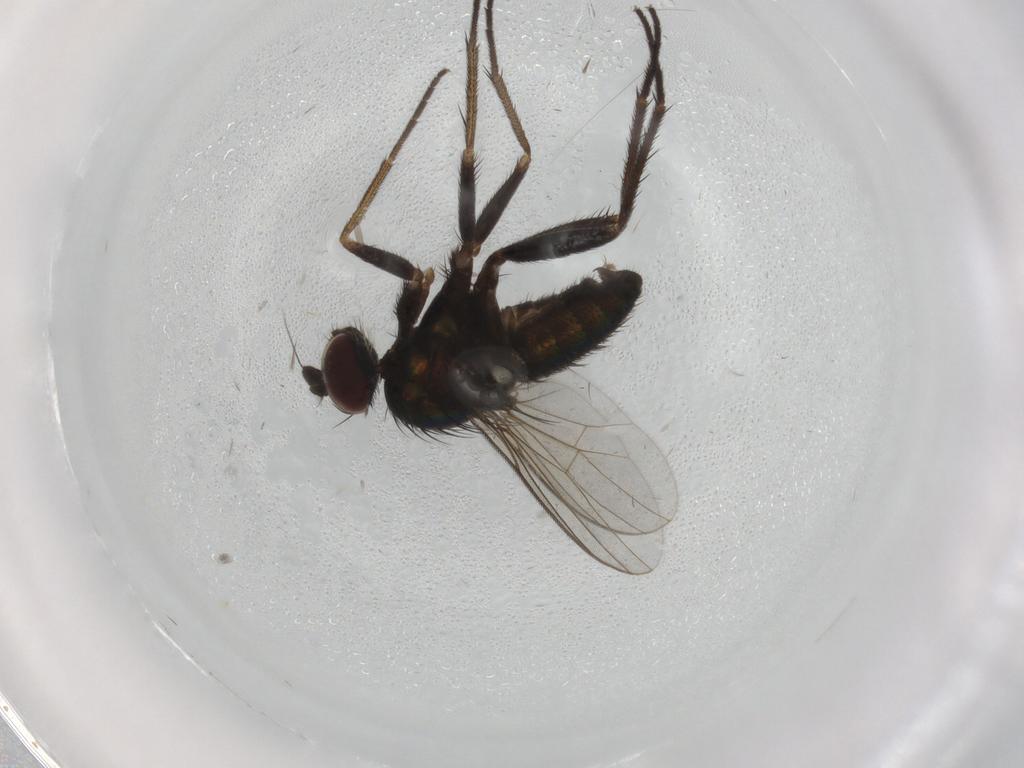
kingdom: Animalia
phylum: Arthropoda
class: Insecta
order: Diptera
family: Dolichopodidae
